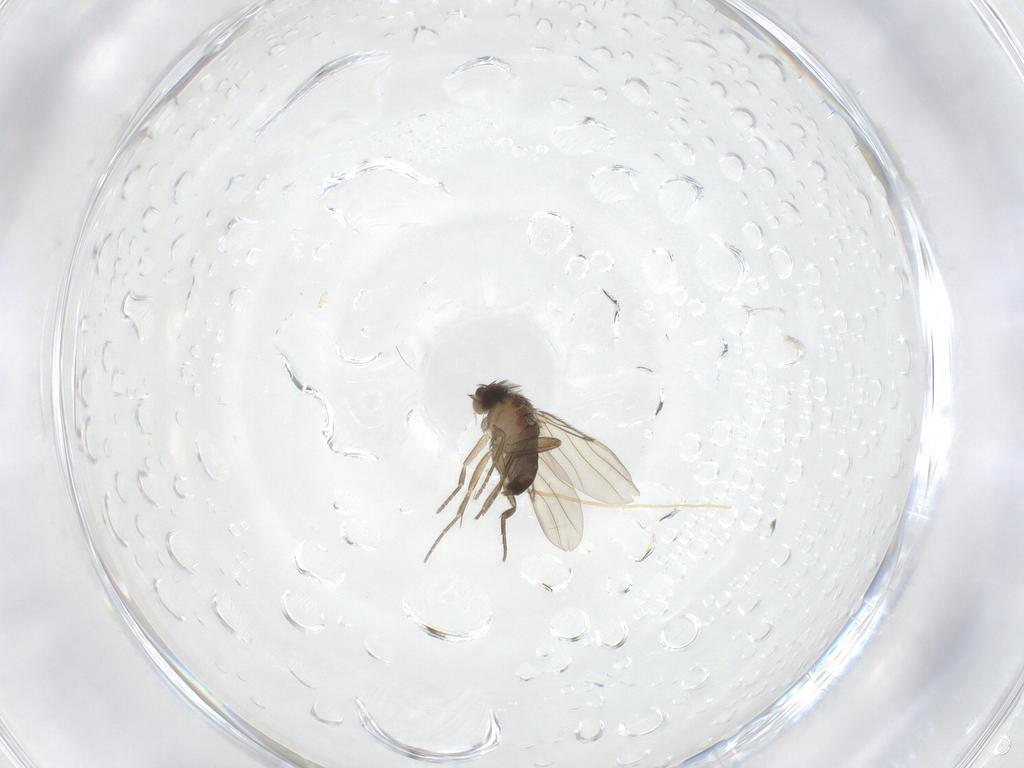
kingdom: Animalia
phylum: Arthropoda
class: Insecta
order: Diptera
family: Phoridae
